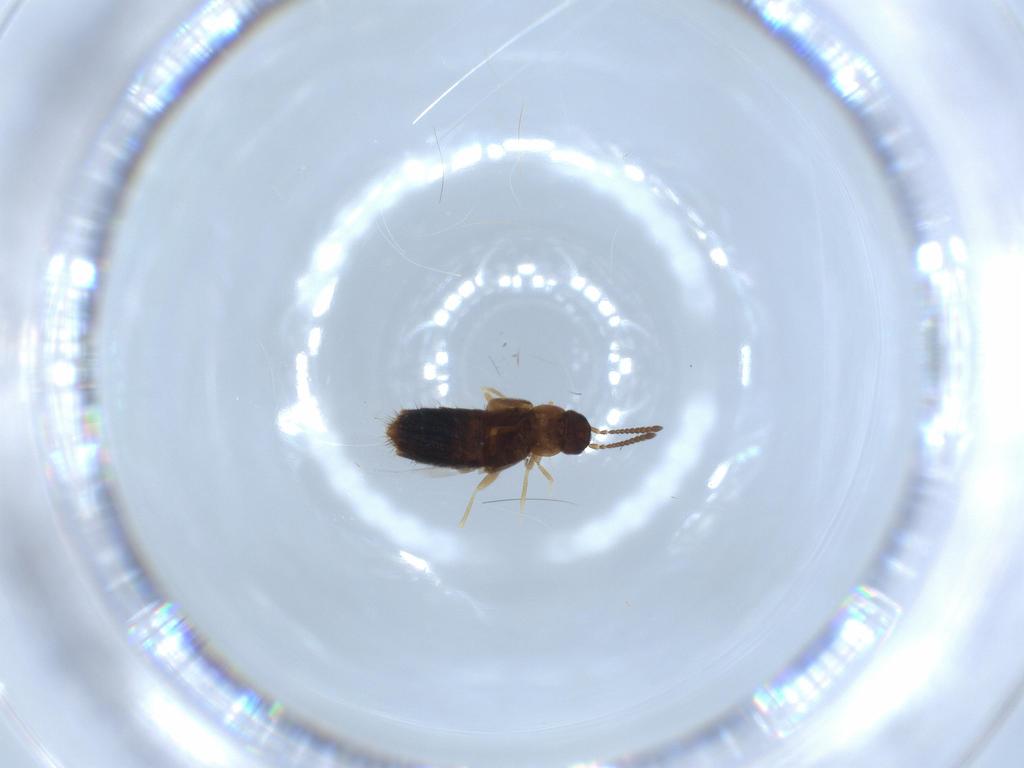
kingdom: Animalia
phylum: Arthropoda
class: Insecta
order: Coleoptera
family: Staphylinidae
